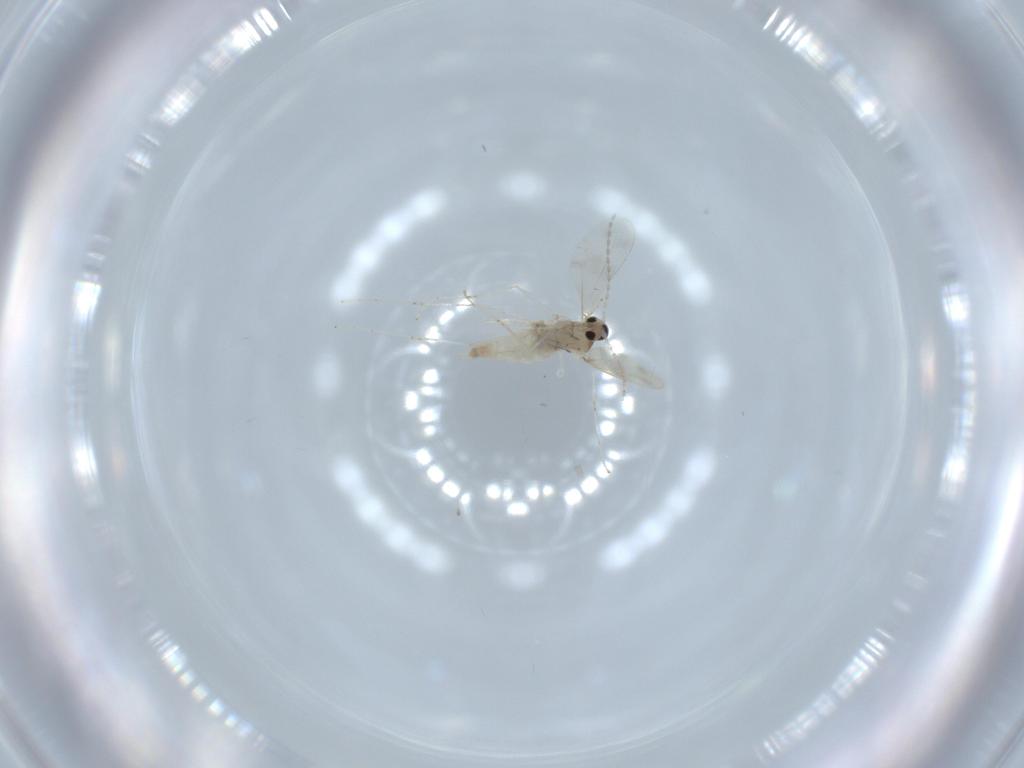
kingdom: Animalia
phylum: Arthropoda
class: Insecta
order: Diptera
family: Cecidomyiidae
